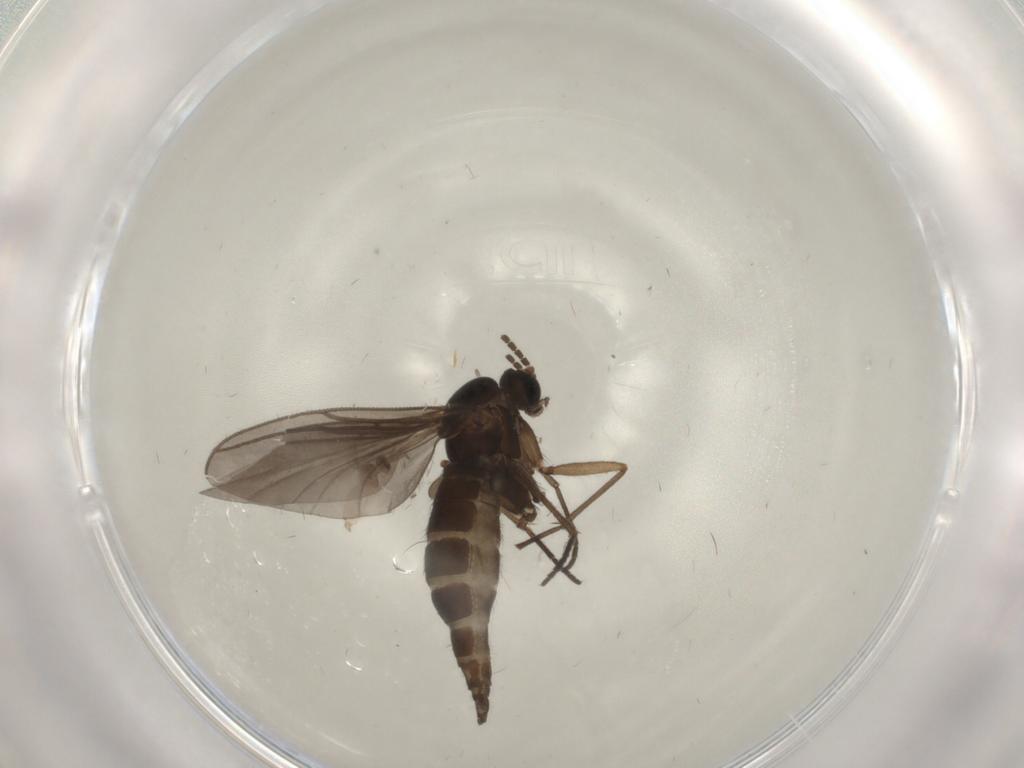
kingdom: Animalia
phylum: Arthropoda
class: Insecta
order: Diptera
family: Sciaridae
